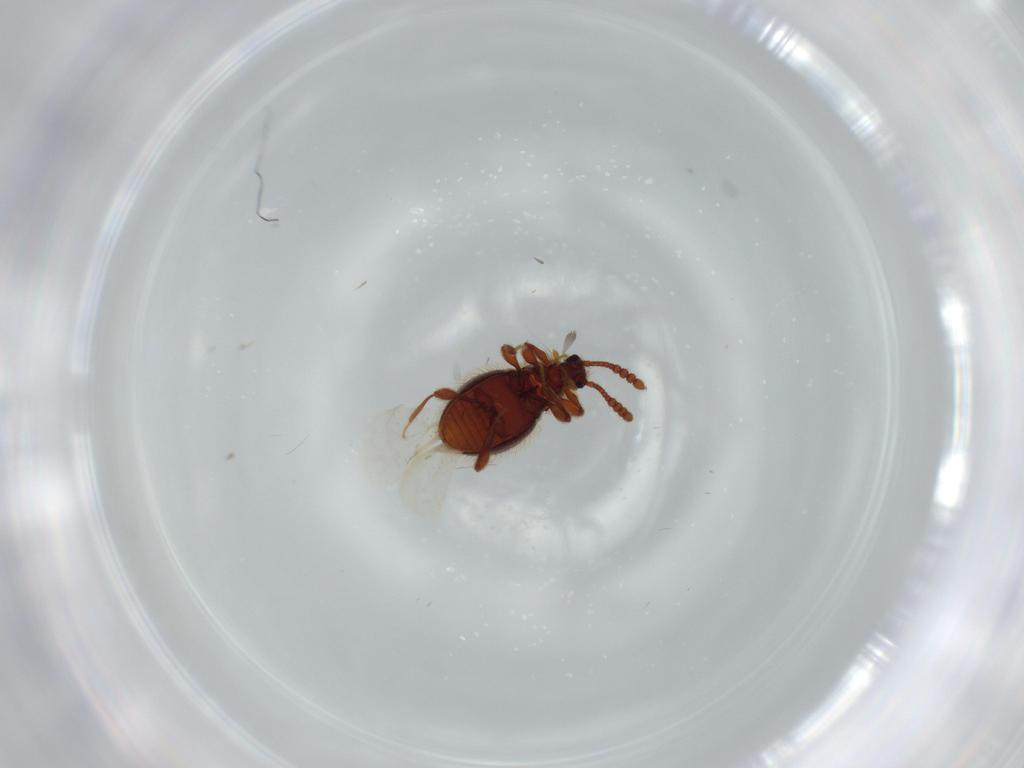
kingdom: Animalia
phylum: Arthropoda
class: Insecta
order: Coleoptera
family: Staphylinidae
